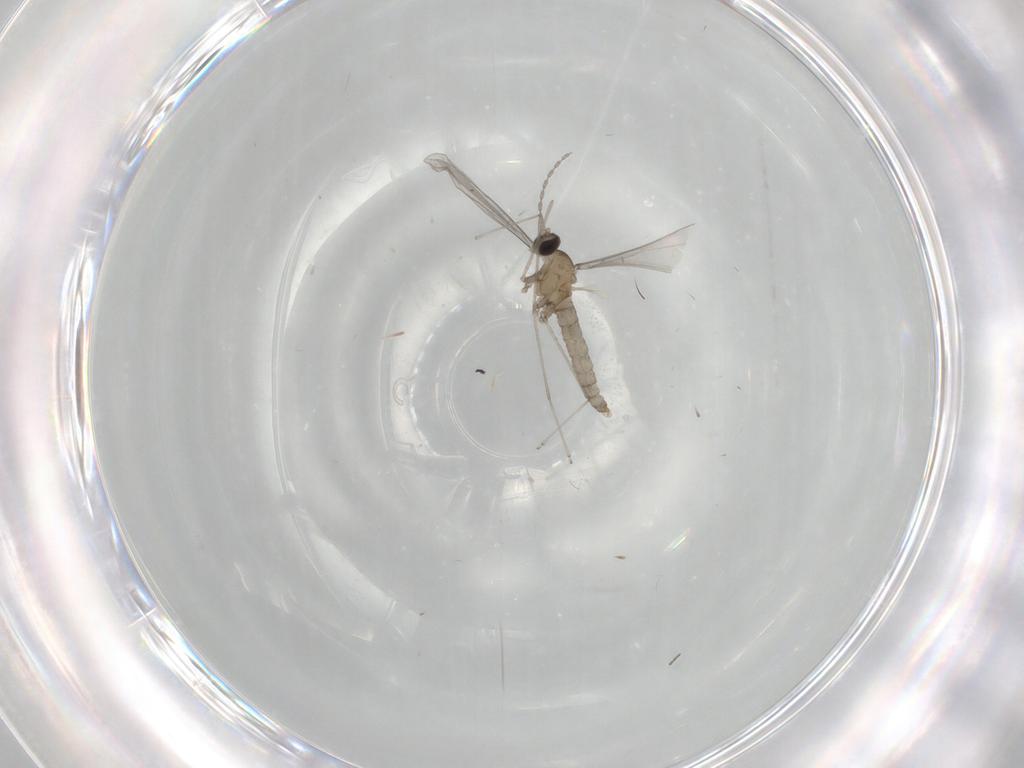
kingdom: Animalia
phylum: Arthropoda
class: Insecta
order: Diptera
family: Cecidomyiidae
